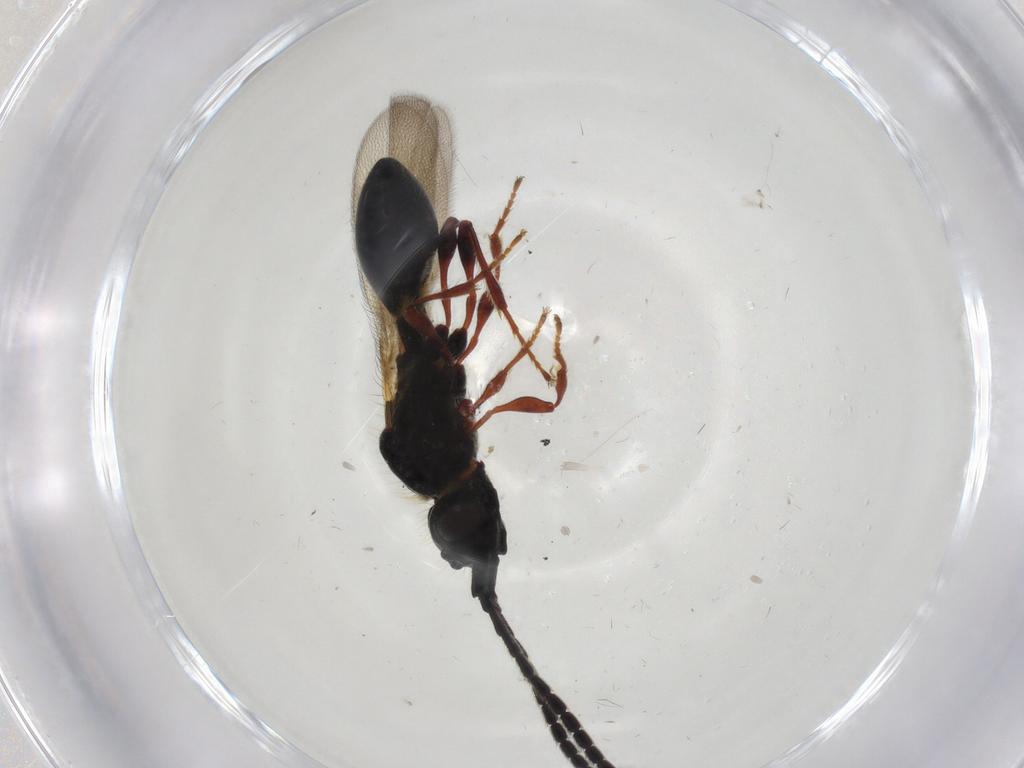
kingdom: Animalia
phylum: Arthropoda
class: Insecta
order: Hymenoptera
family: Diapriidae
